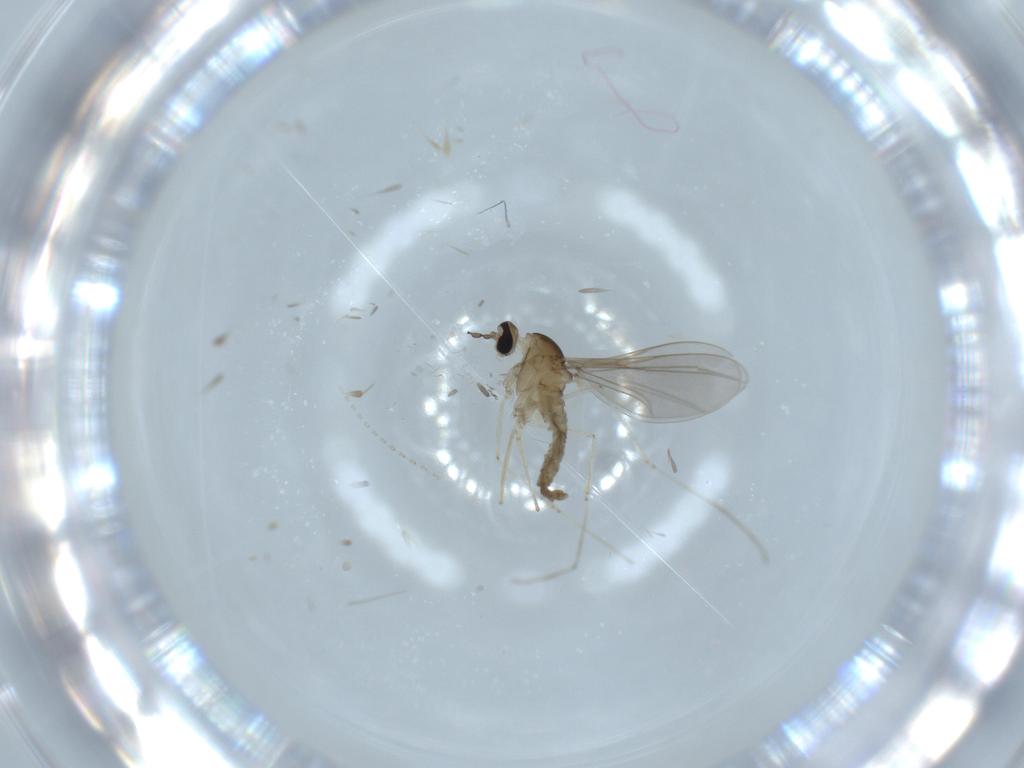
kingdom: Animalia
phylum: Arthropoda
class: Insecta
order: Diptera
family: Cecidomyiidae
